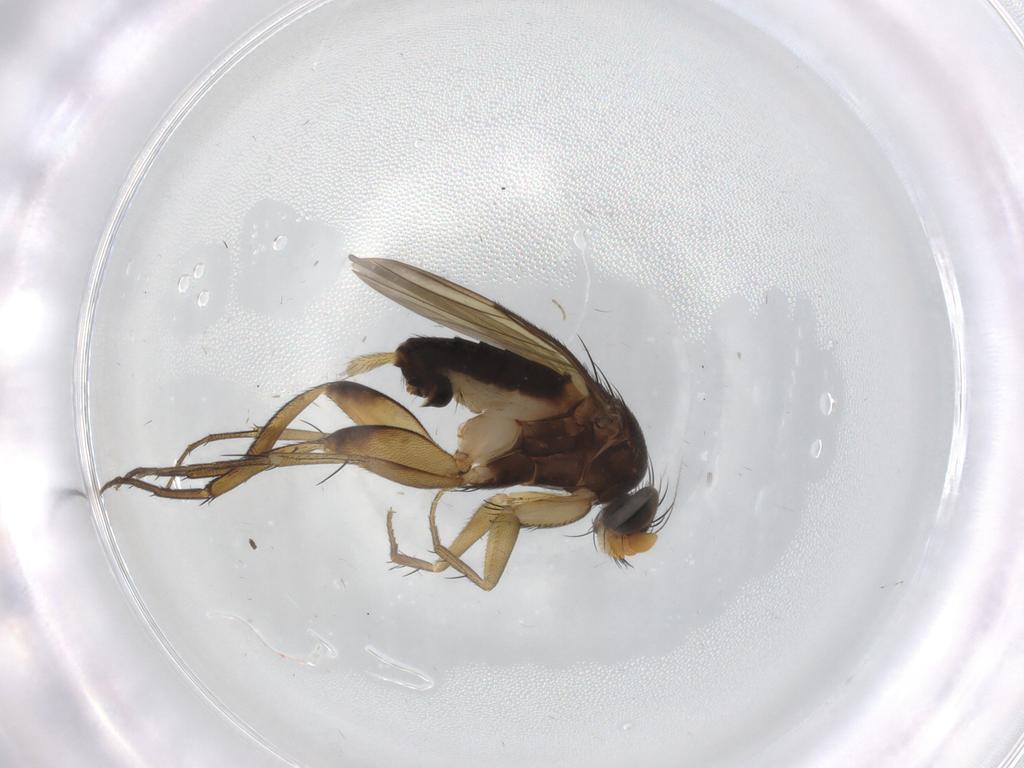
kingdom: Animalia
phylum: Arthropoda
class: Insecta
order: Diptera
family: Phoridae
